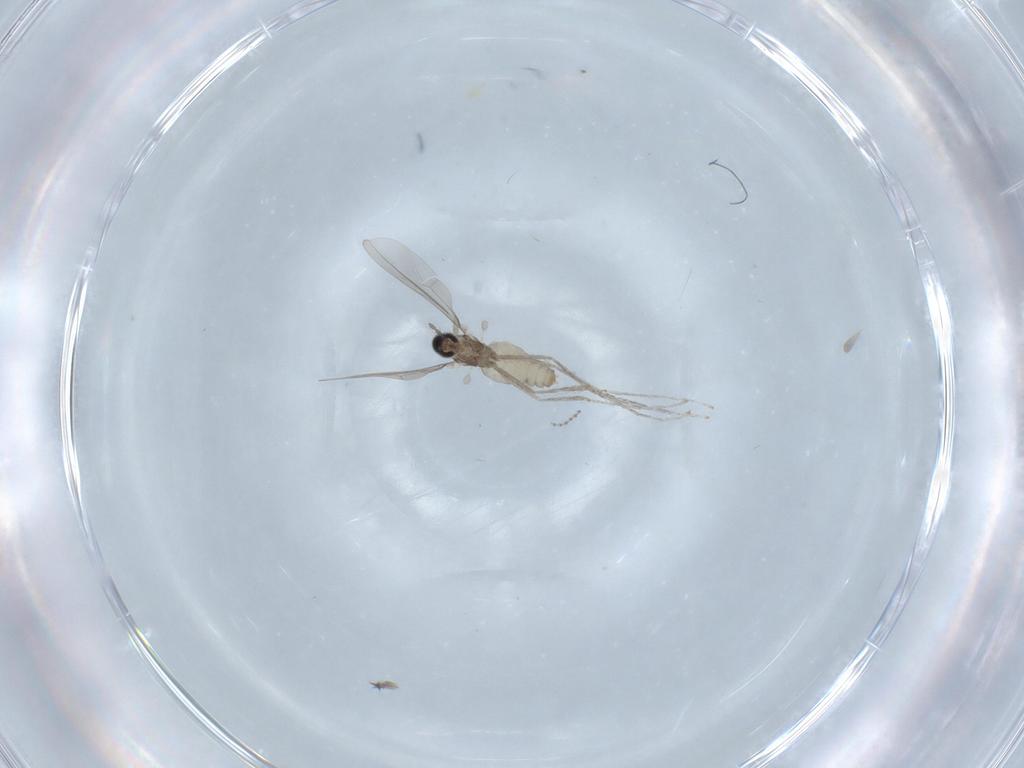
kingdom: Animalia
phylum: Arthropoda
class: Insecta
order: Diptera
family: Cecidomyiidae
